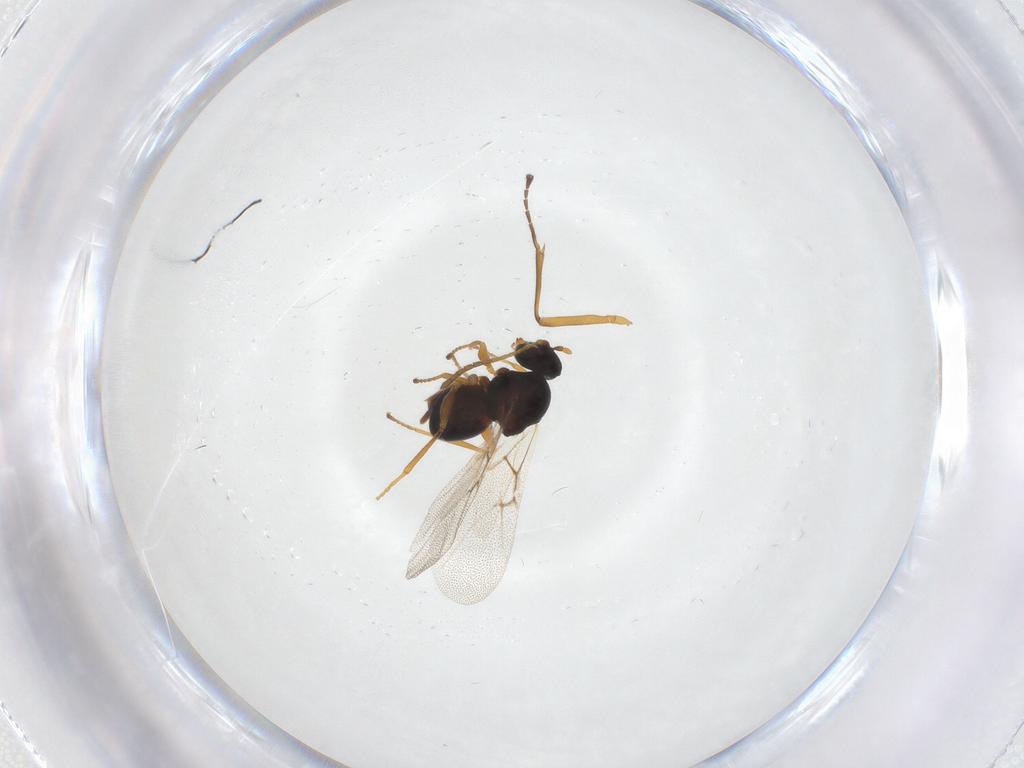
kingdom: Animalia
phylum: Arthropoda
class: Insecta
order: Hymenoptera
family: Braconidae
